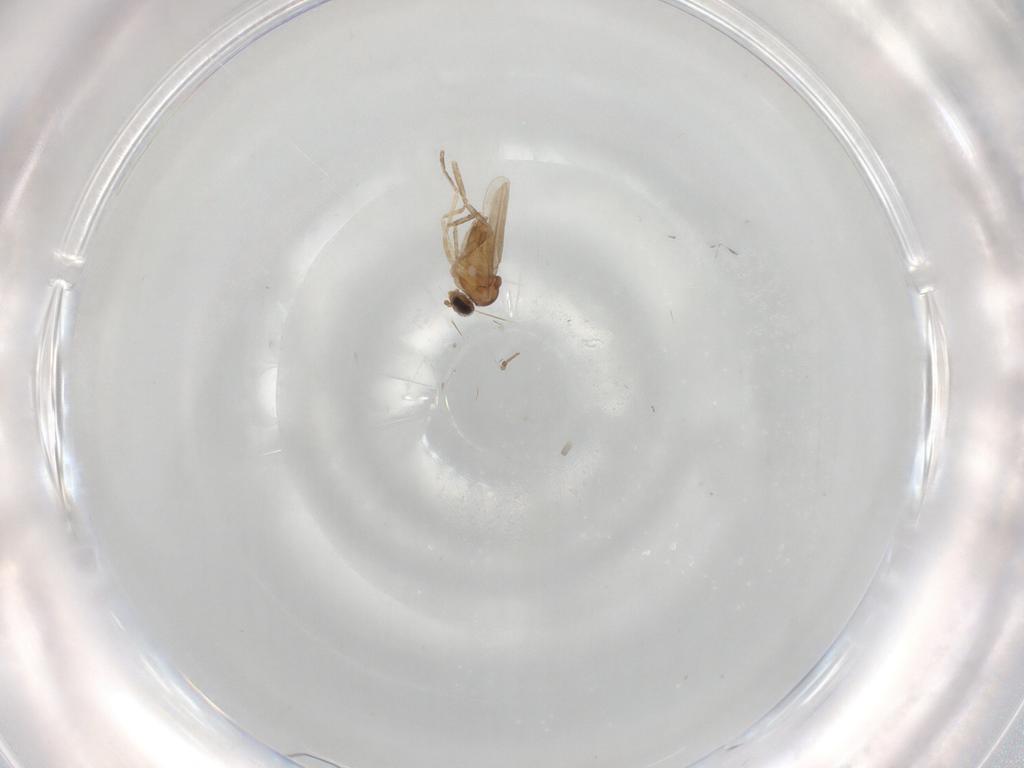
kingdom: Animalia
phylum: Arthropoda
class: Insecta
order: Diptera
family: Cecidomyiidae
